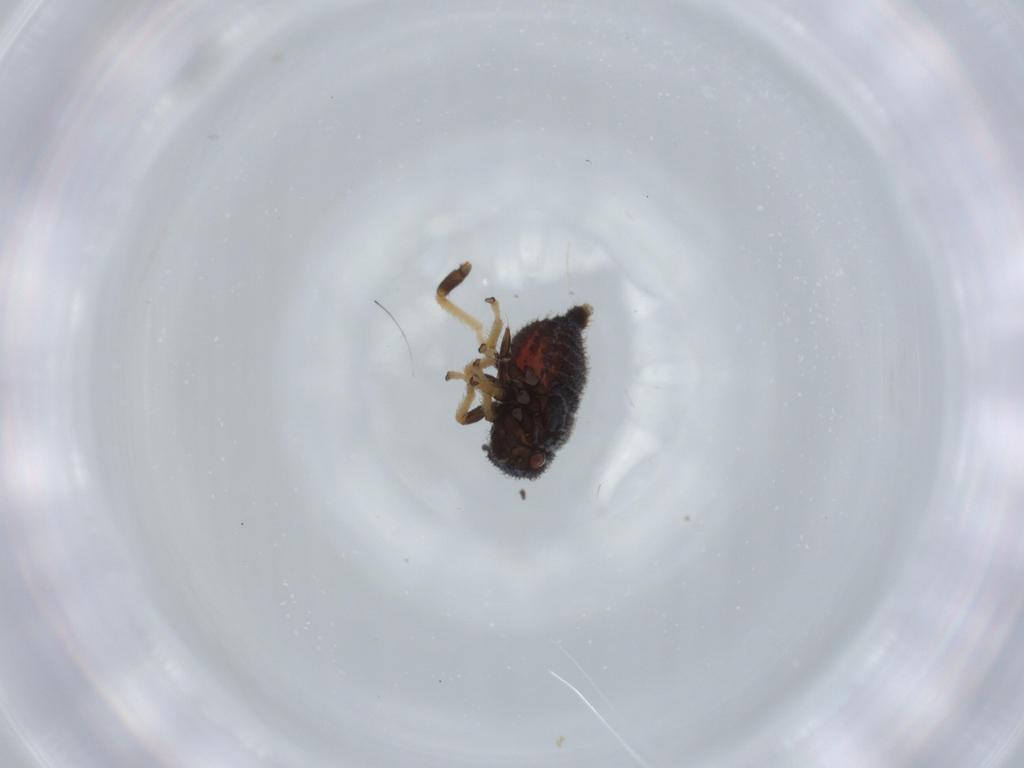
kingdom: Animalia
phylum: Arthropoda
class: Insecta
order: Hemiptera
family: Membracidae
